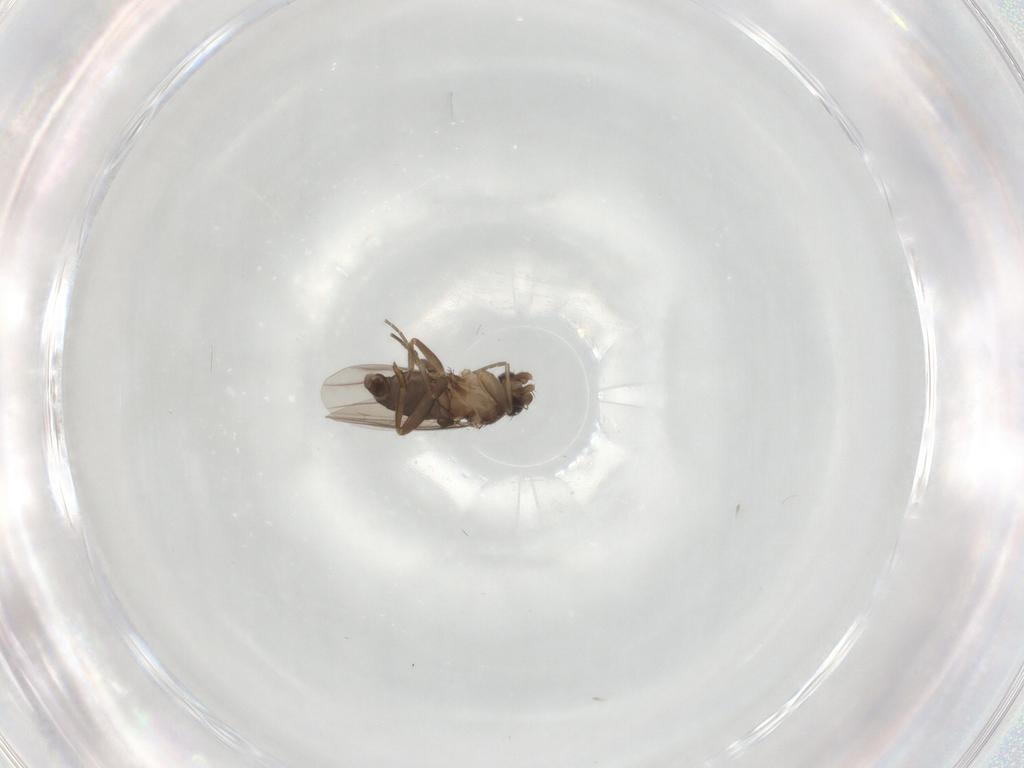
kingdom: Animalia
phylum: Arthropoda
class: Insecta
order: Diptera
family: Phoridae
